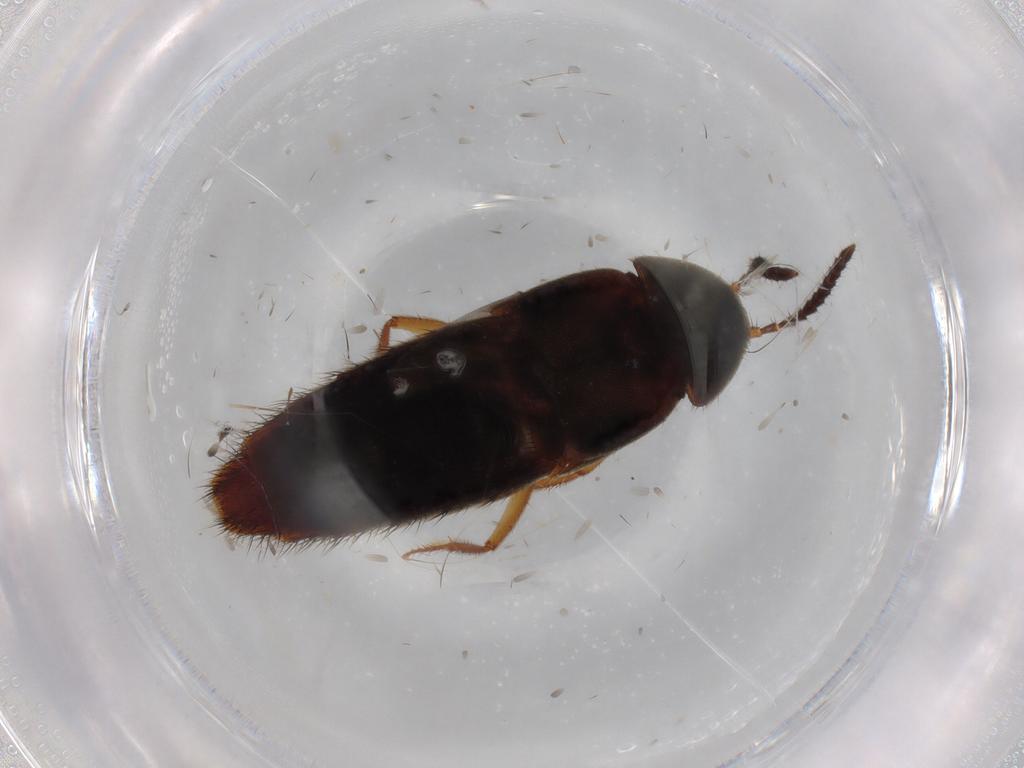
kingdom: Animalia
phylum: Arthropoda
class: Insecta
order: Coleoptera
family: Staphylinidae
